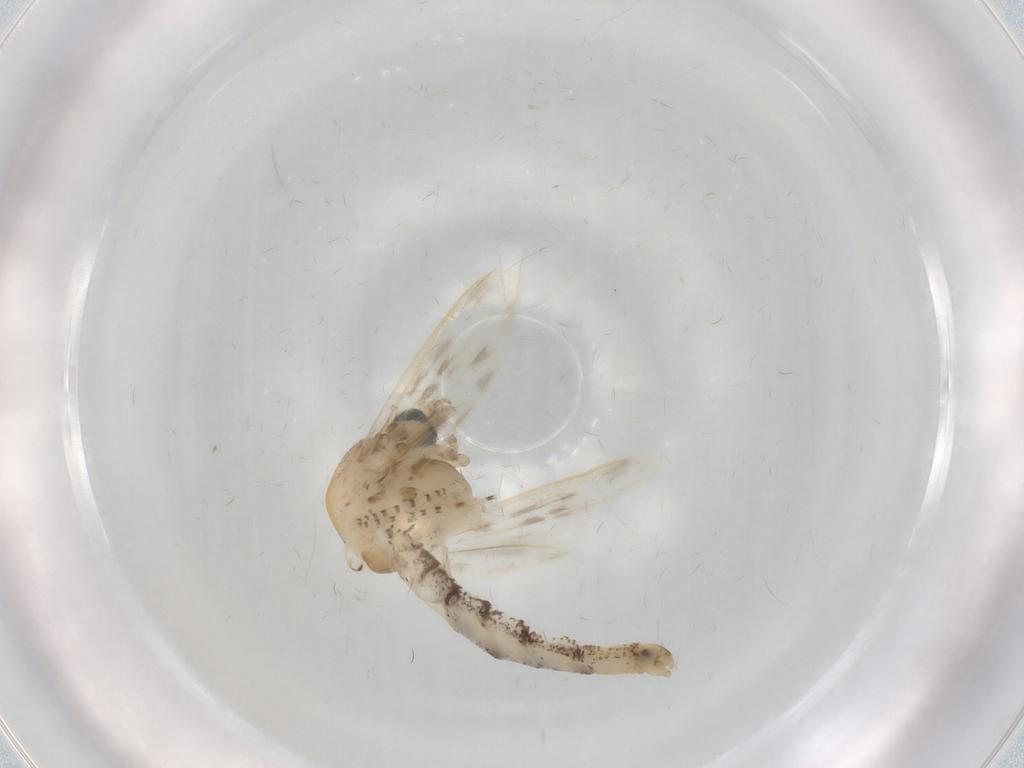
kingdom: Animalia
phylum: Arthropoda
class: Insecta
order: Diptera
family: Chaoboridae
